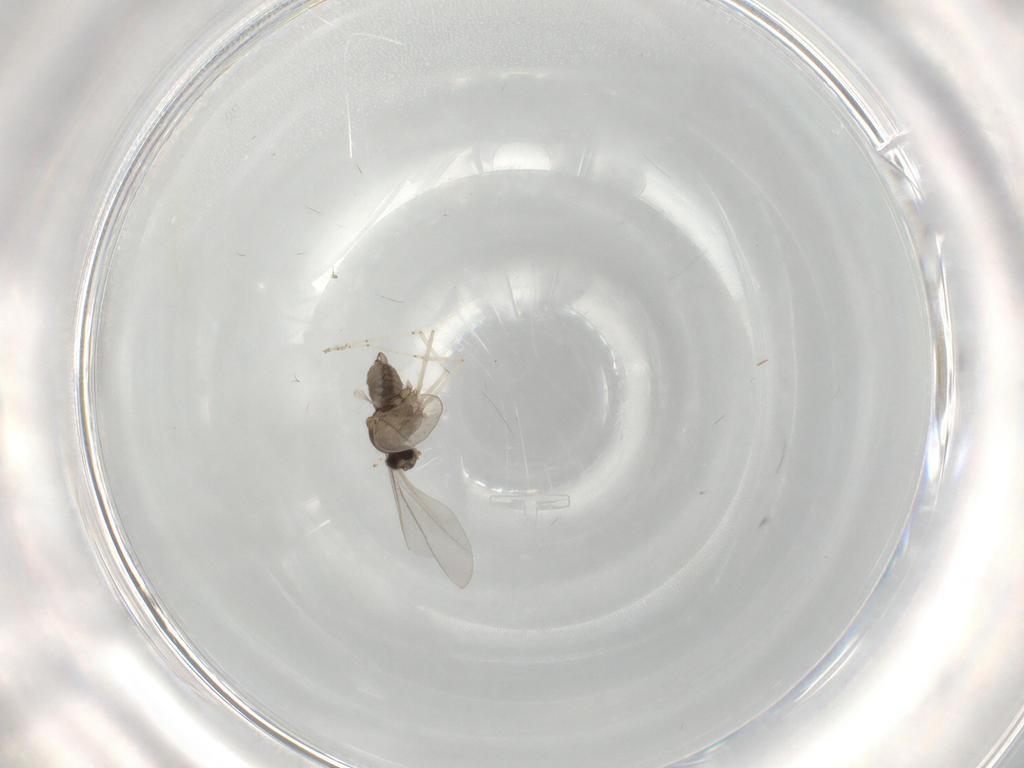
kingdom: Animalia
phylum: Arthropoda
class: Insecta
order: Diptera
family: Cecidomyiidae
